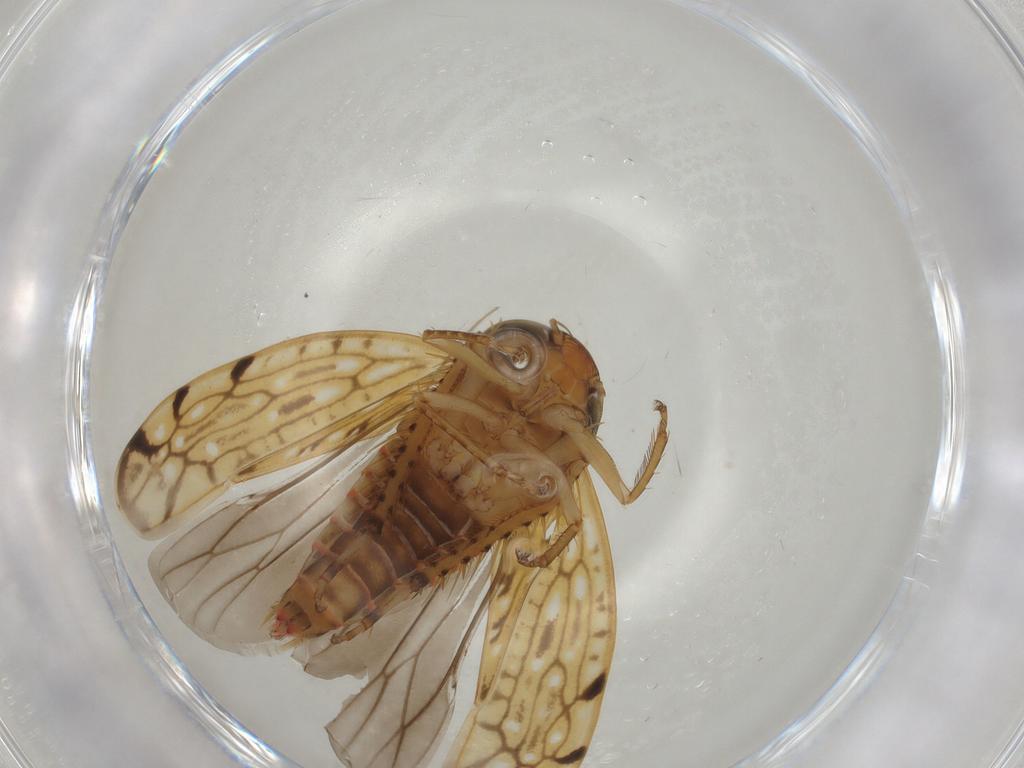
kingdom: Animalia
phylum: Arthropoda
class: Insecta
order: Hemiptera
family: Cicadellidae
